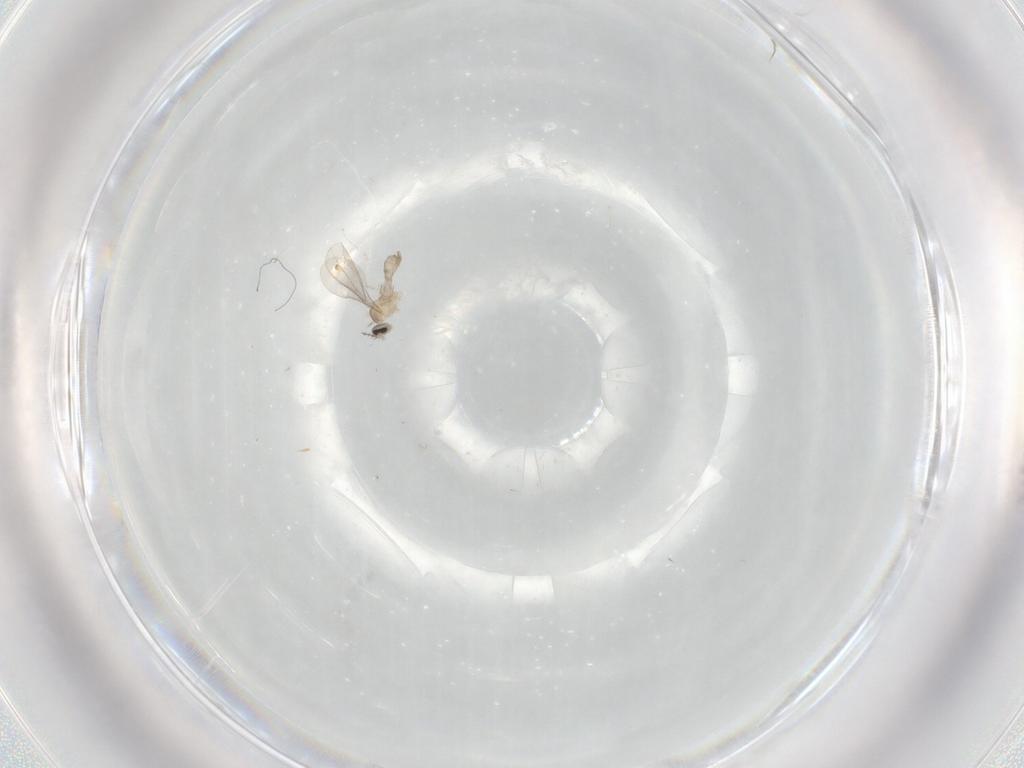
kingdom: Animalia
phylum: Arthropoda
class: Insecta
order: Diptera
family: Cecidomyiidae
